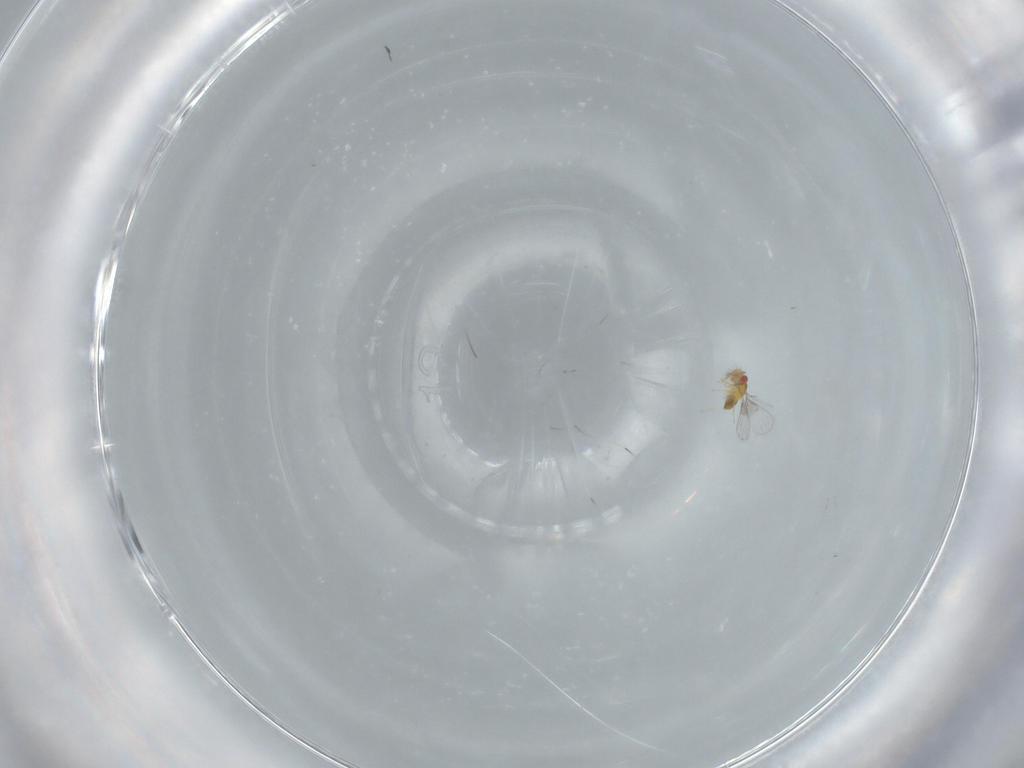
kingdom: Animalia
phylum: Arthropoda
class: Insecta
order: Hymenoptera
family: Trichogrammatidae
